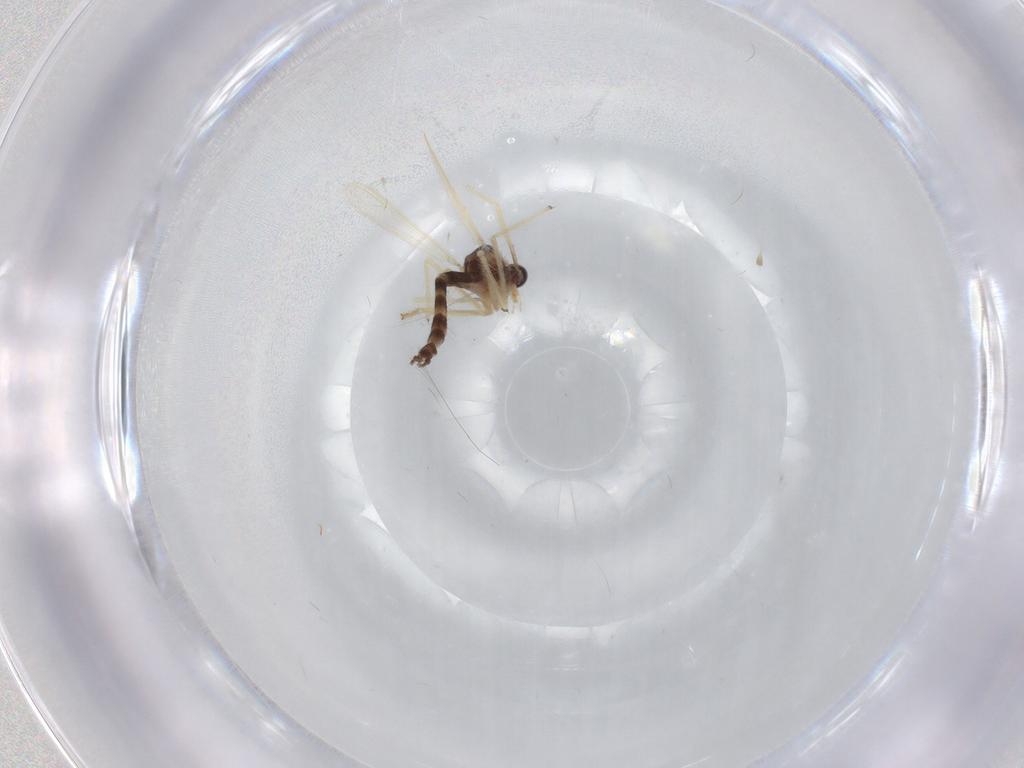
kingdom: Animalia
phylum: Arthropoda
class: Insecta
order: Diptera
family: Chironomidae
